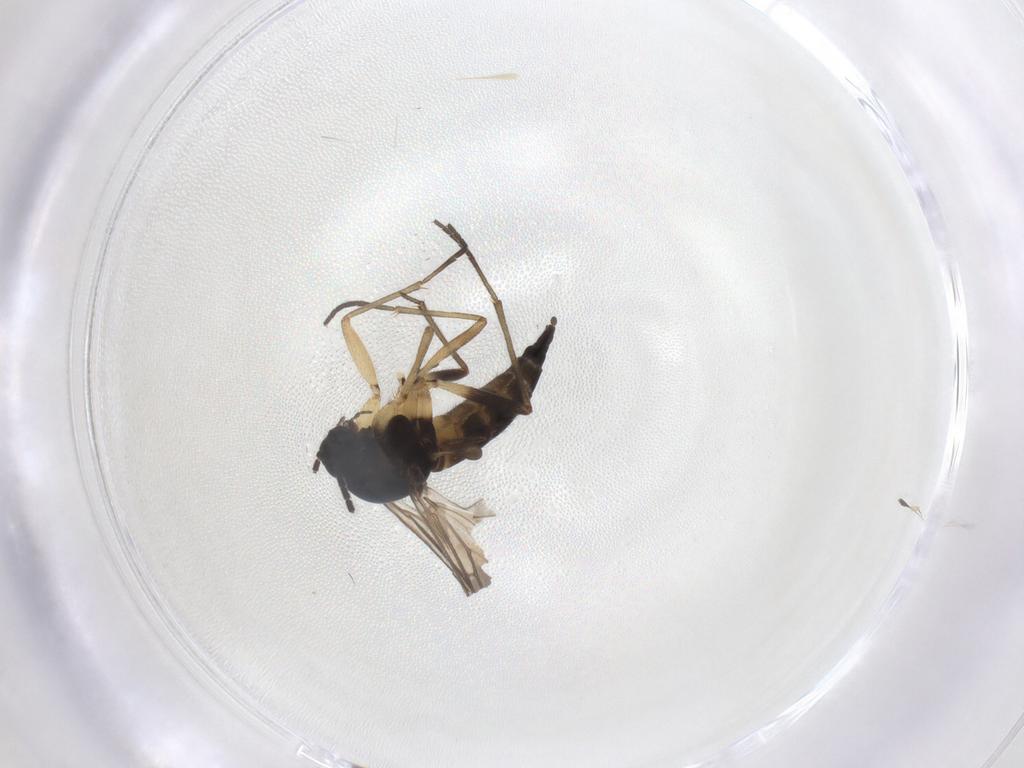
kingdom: Animalia
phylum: Arthropoda
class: Insecta
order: Diptera
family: Sciaridae
